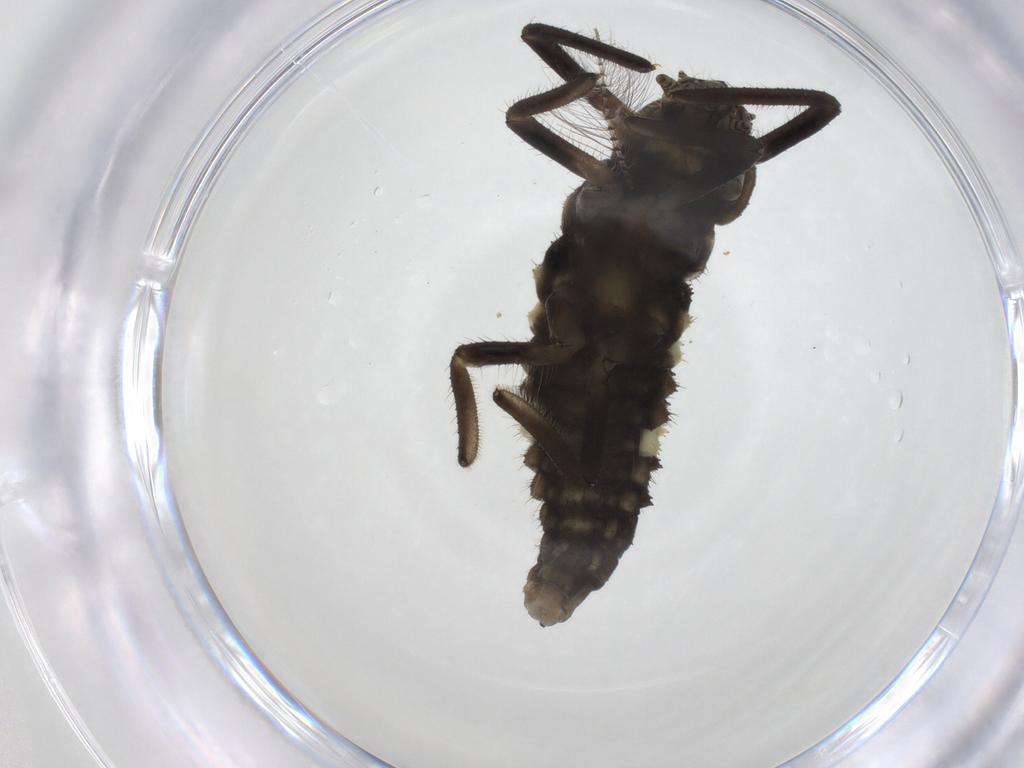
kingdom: Animalia
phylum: Arthropoda
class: Insecta
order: Coleoptera
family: Coccinellidae
